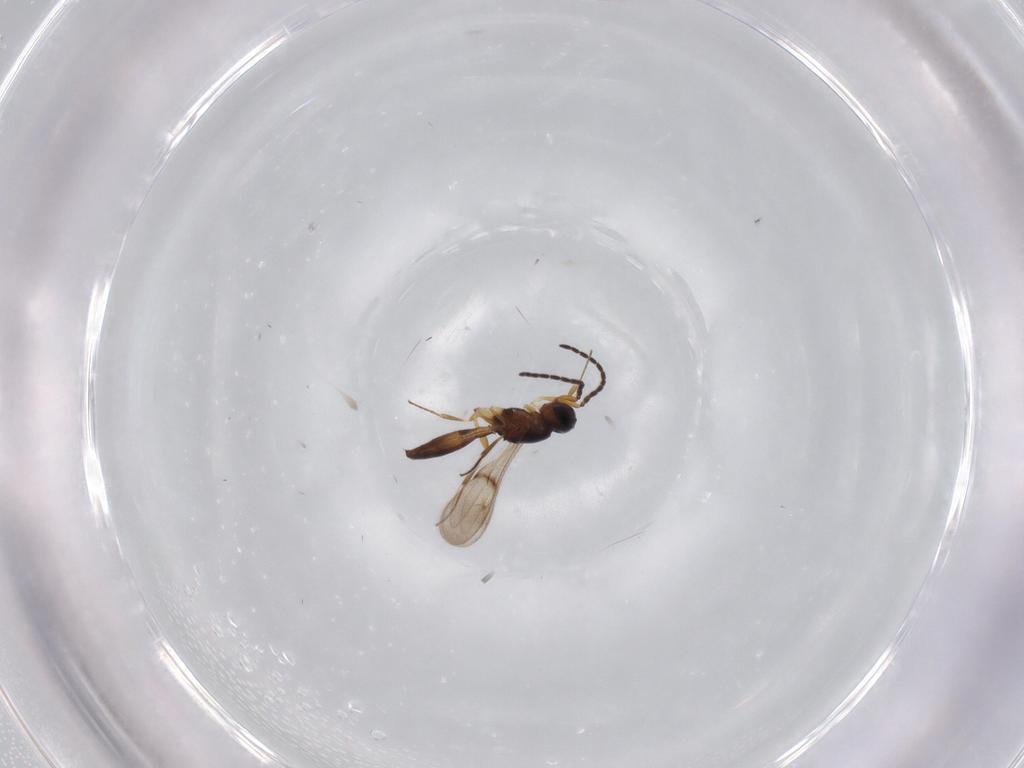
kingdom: Animalia
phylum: Arthropoda
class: Insecta
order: Hymenoptera
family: Scelionidae
